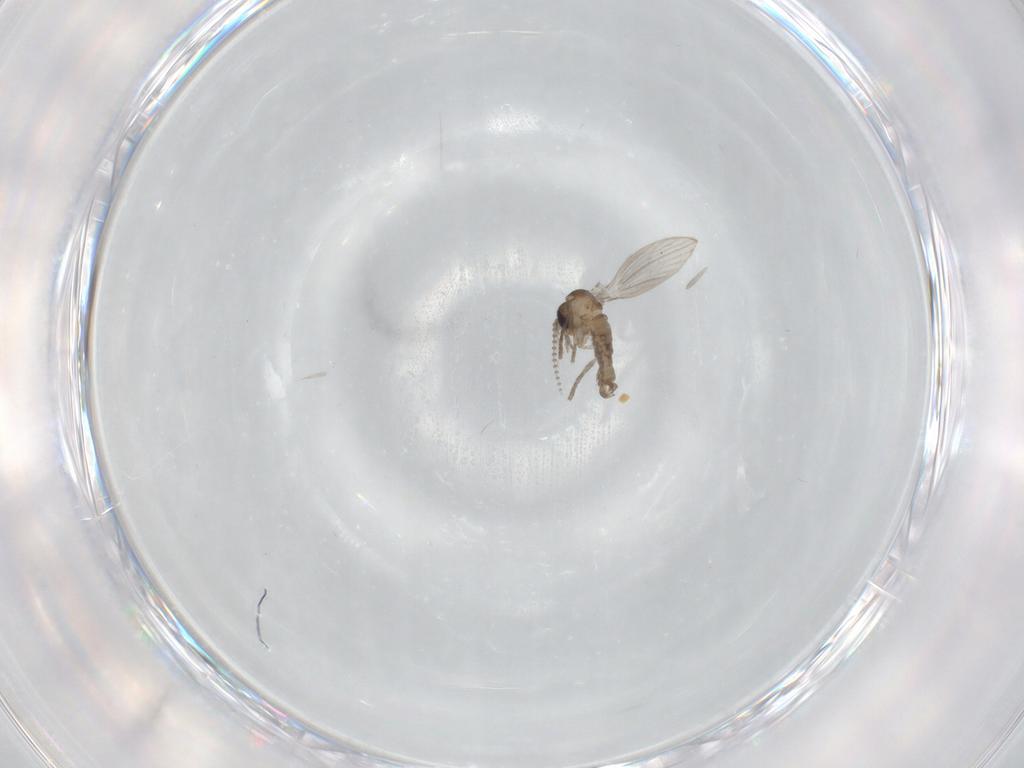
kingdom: Animalia
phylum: Arthropoda
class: Insecta
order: Diptera
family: Psychodidae
